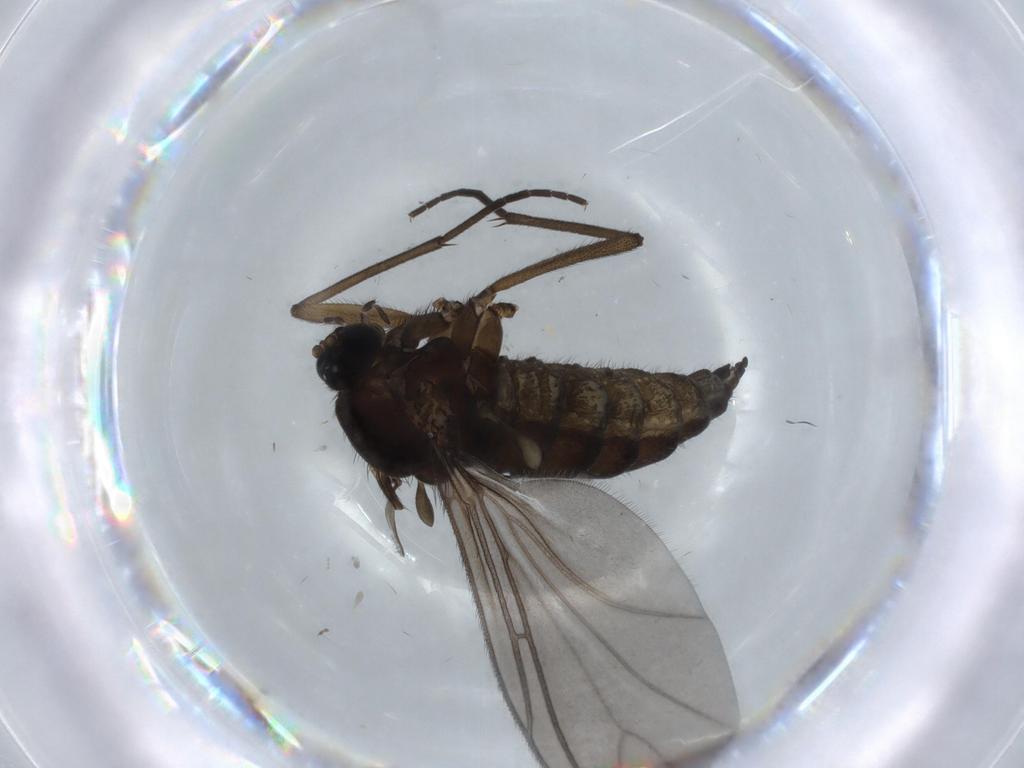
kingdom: Animalia
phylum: Arthropoda
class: Insecta
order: Diptera
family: Sciaridae
